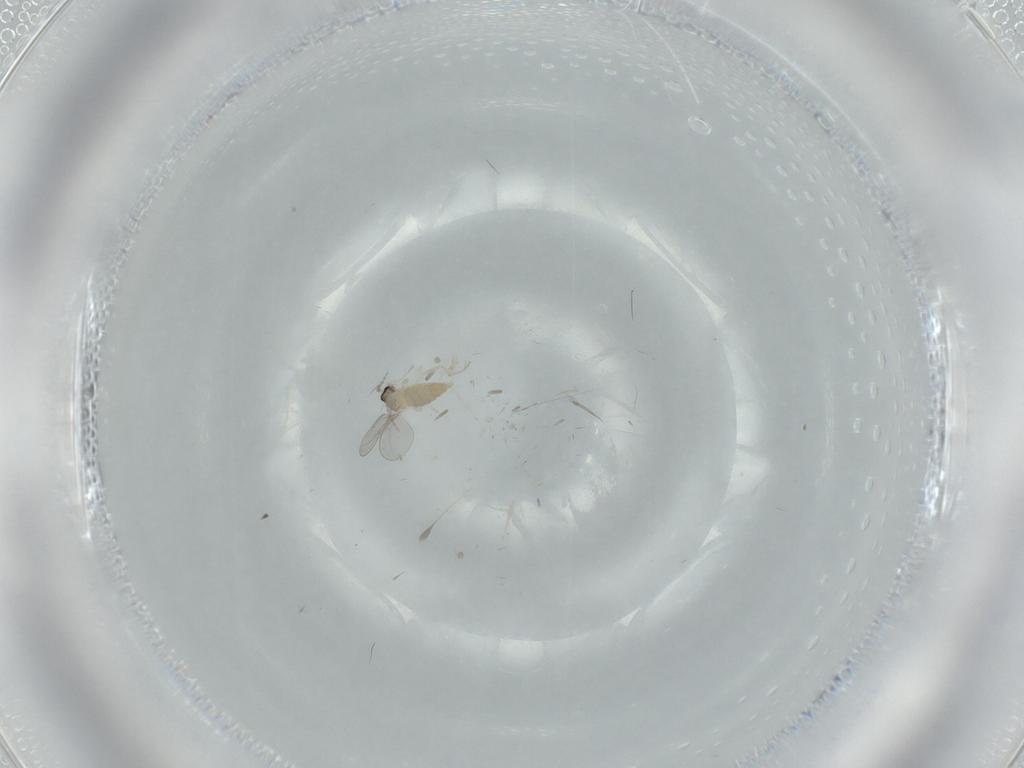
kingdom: Animalia
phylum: Arthropoda
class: Insecta
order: Diptera
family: Cecidomyiidae
